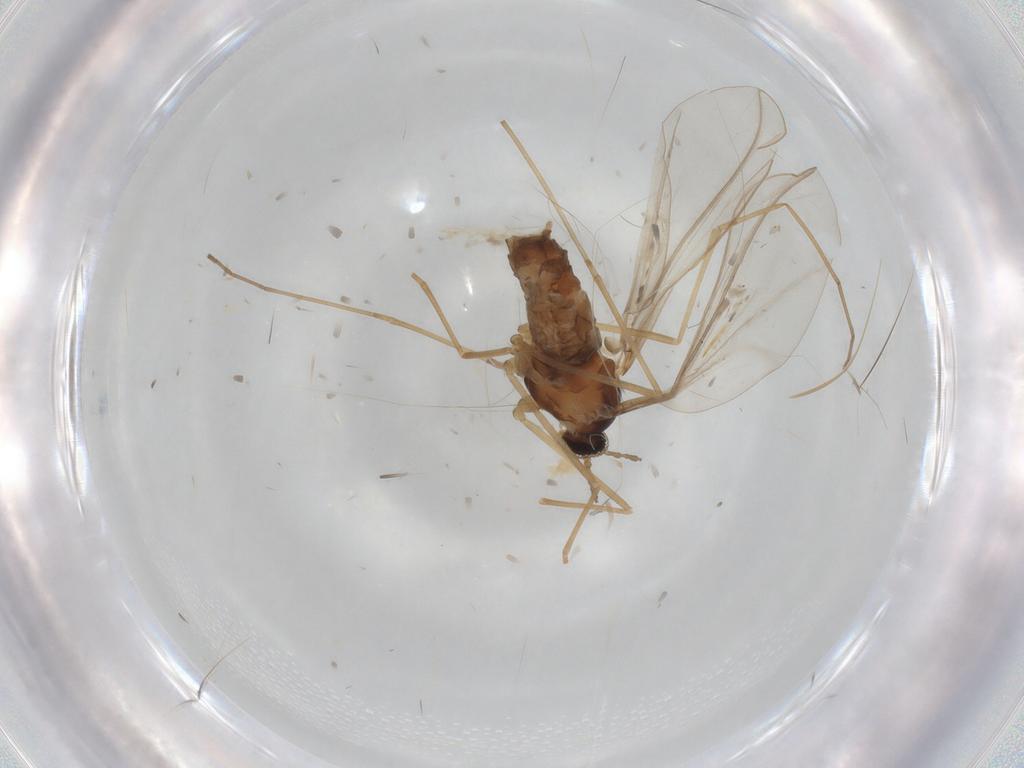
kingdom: Animalia
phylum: Arthropoda
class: Insecta
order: Diptera
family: Cecidomyiidae
